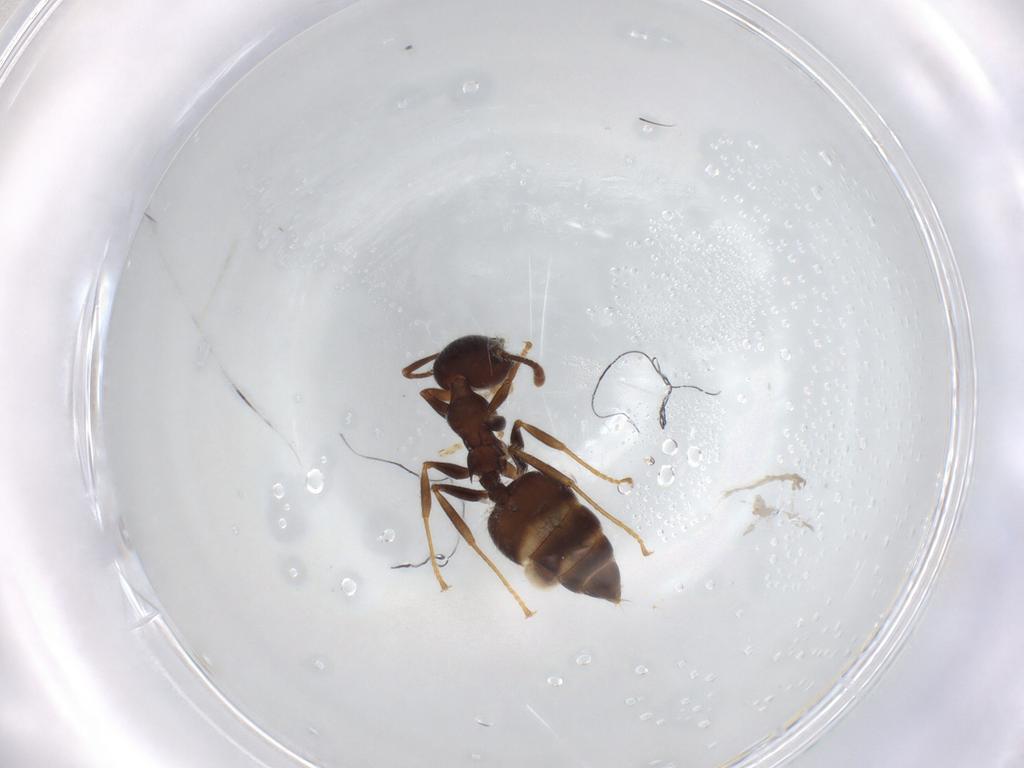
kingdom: Animalia
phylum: Arthropoda
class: Insecta
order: Hymenoptera
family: Formicidae
